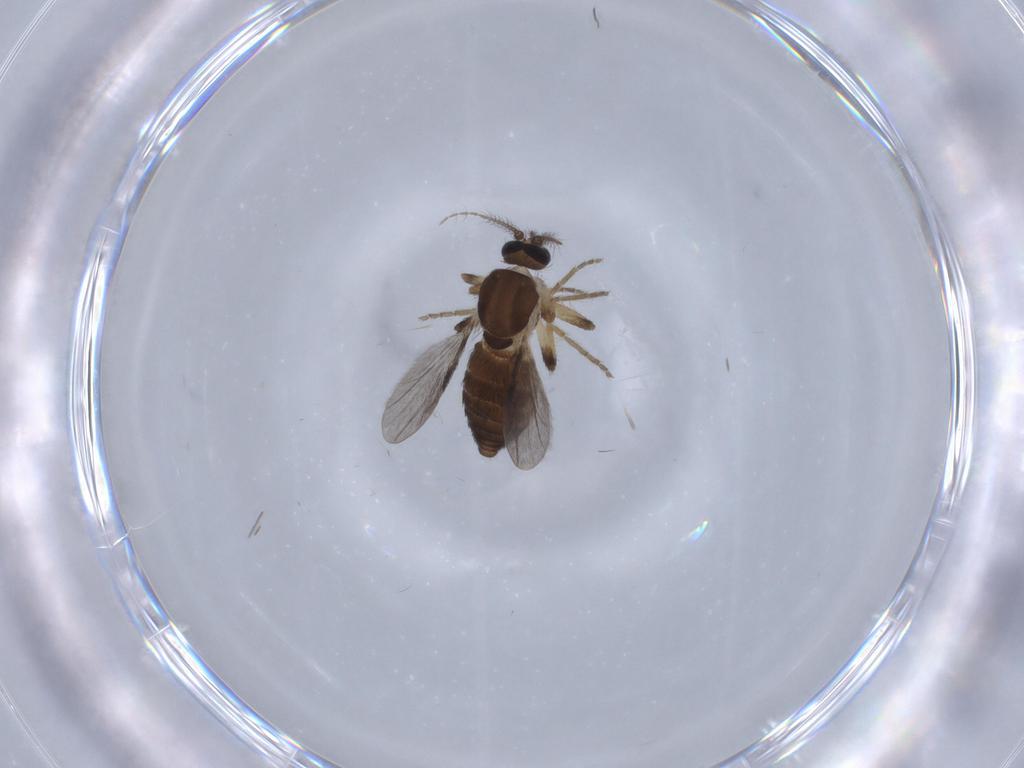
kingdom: Animalia
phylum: Arthropoda
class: Insecta
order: Diptera
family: Ceratopogonidae
